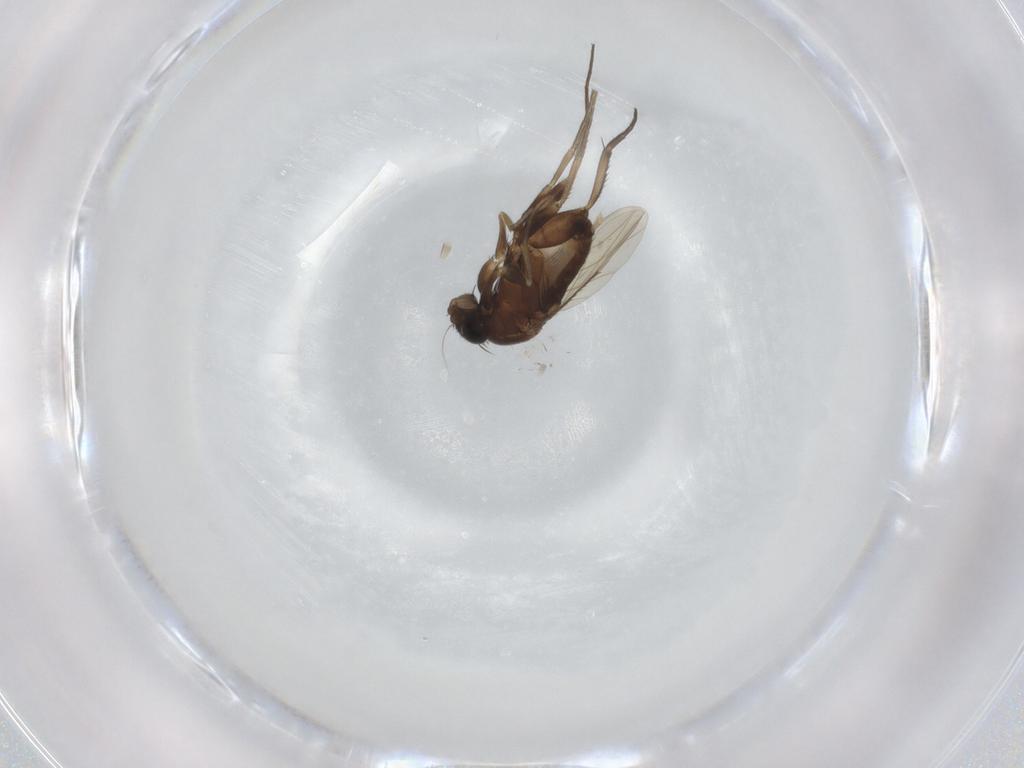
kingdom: Animalia
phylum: Arthropoda
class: Insecta
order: Diptera
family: Phoridae
